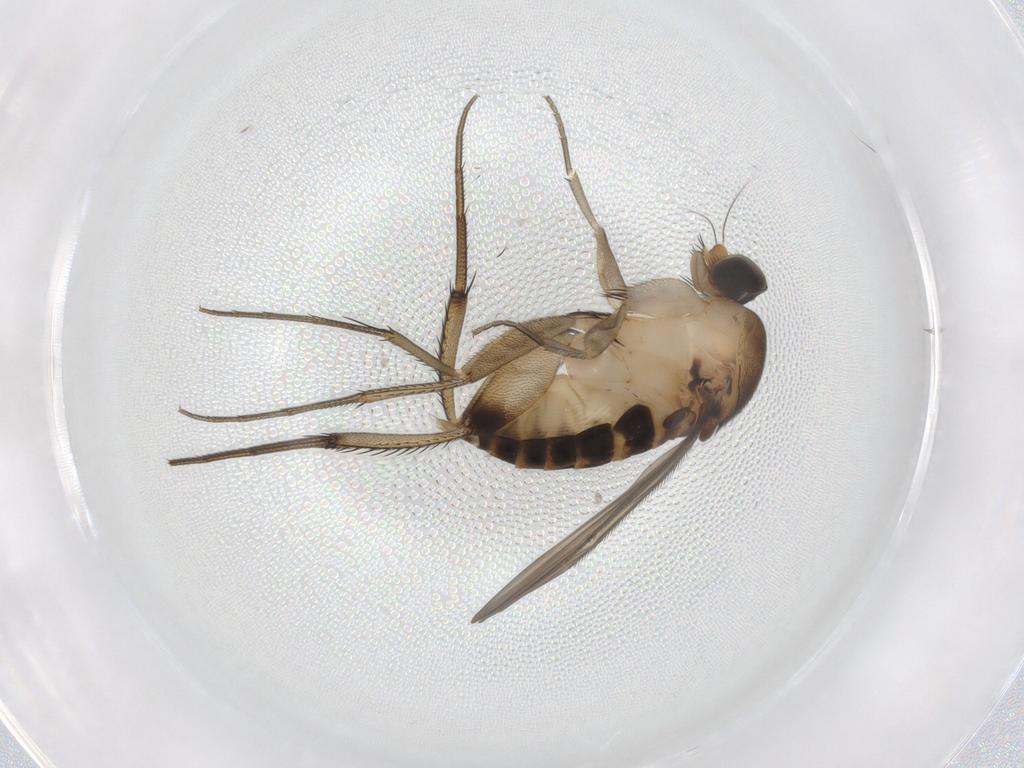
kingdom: Animalia
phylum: Arthropoda
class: Insecta
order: Diptera
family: Phoridae
